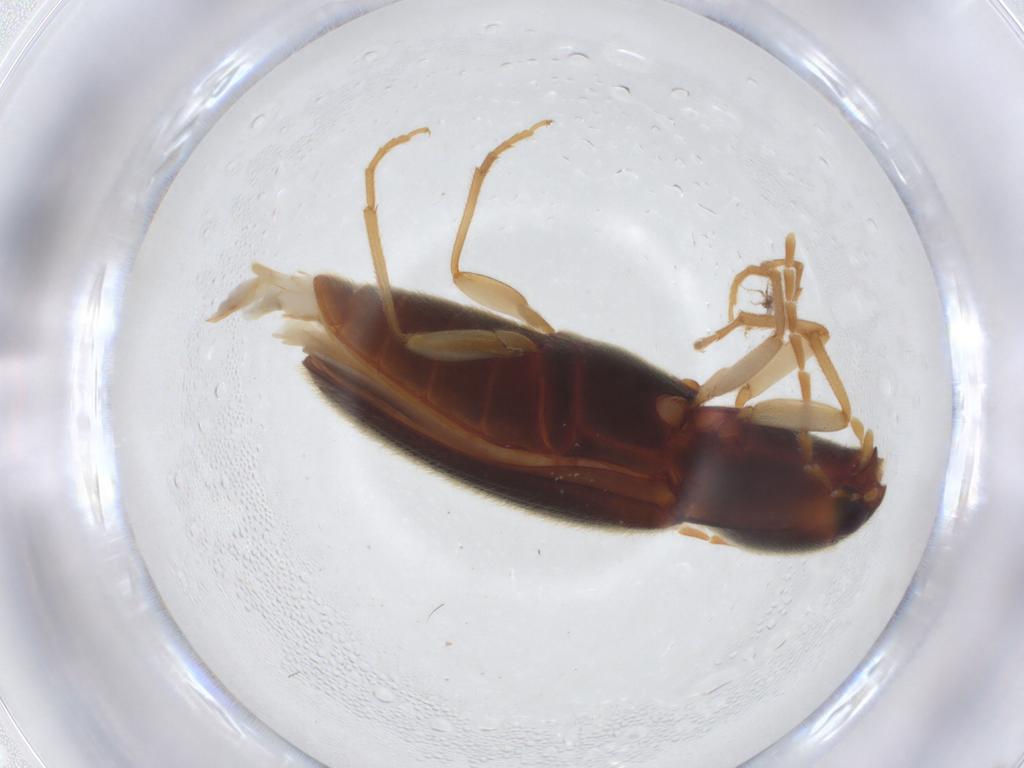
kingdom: Animalia
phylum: Arthropoda
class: Insecta
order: Coleoptera
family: Elateridae
